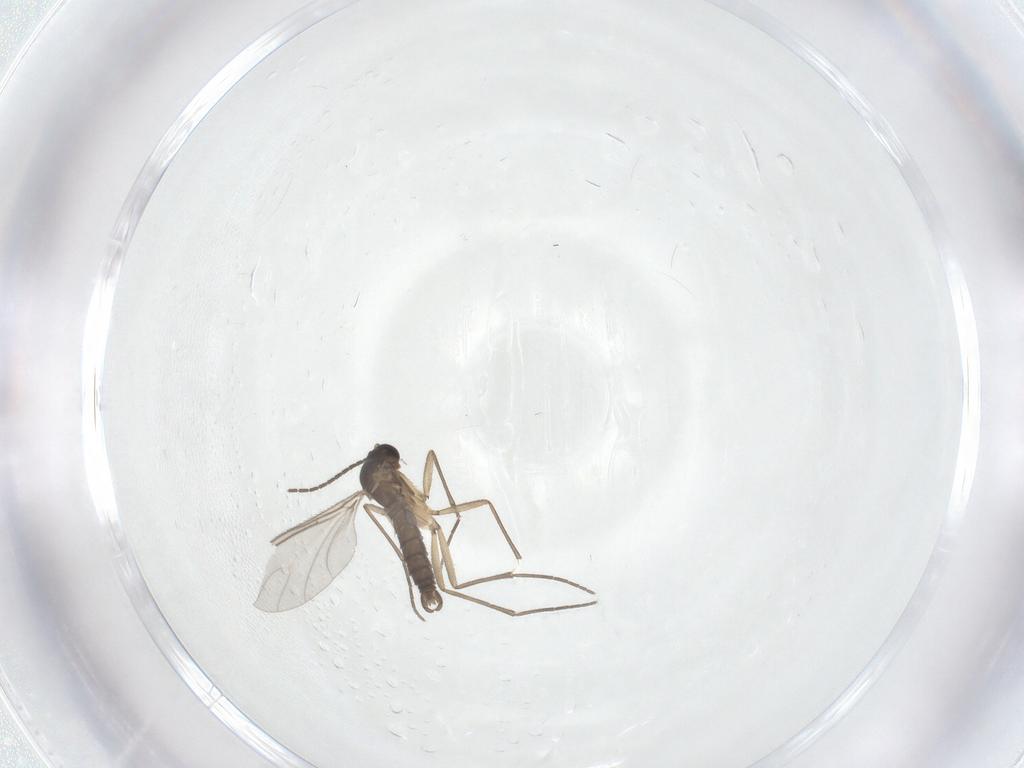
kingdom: Animalia
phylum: Arthropoda
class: Insecta
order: Diptera
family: Sciaridae
